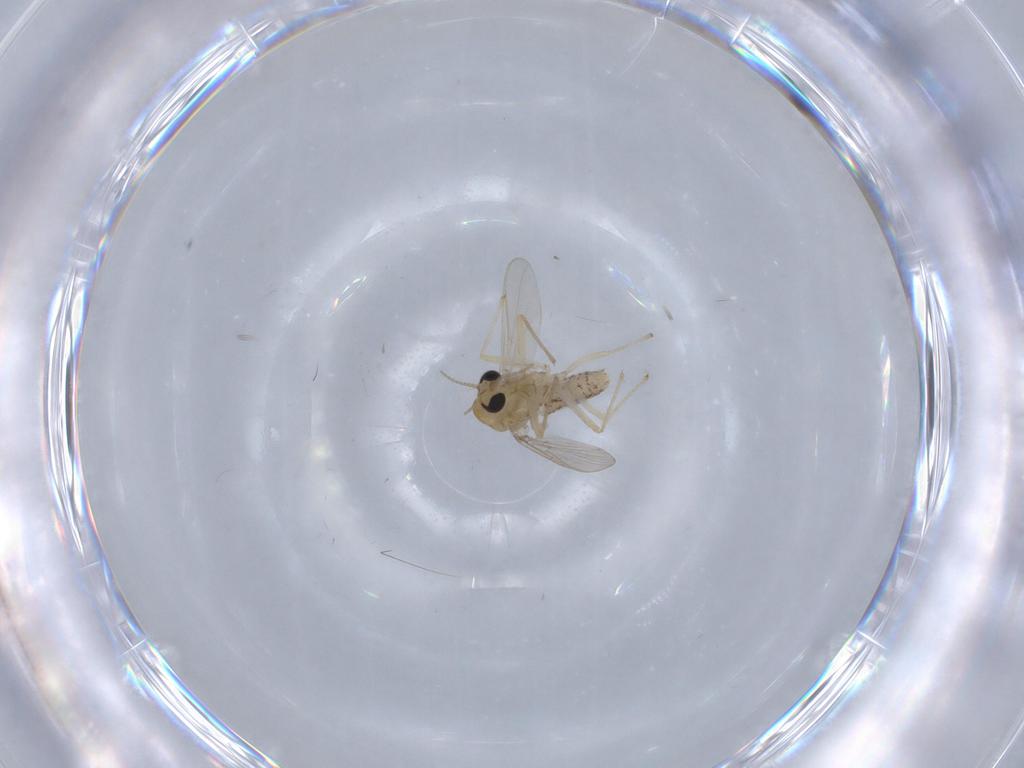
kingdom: Animalia
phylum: Arthropoda
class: Insecta
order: Diptera
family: Chironomidae
